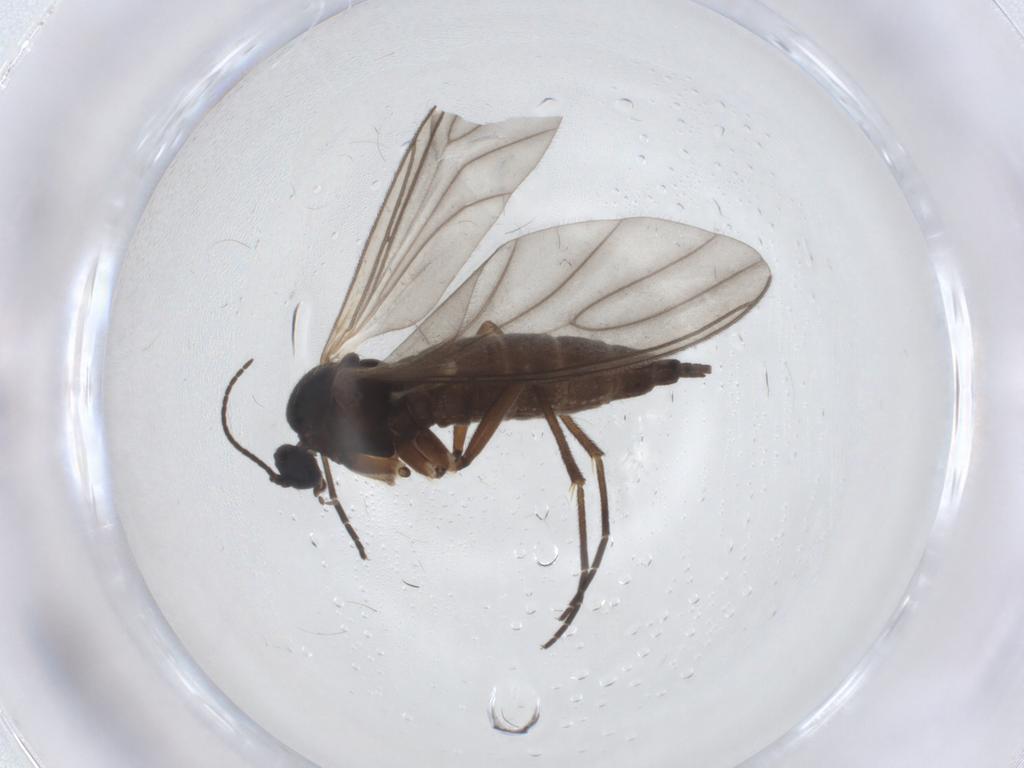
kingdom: Animalia
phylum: Arthropoda
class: Insecta
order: Diptera
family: Sciaridae
